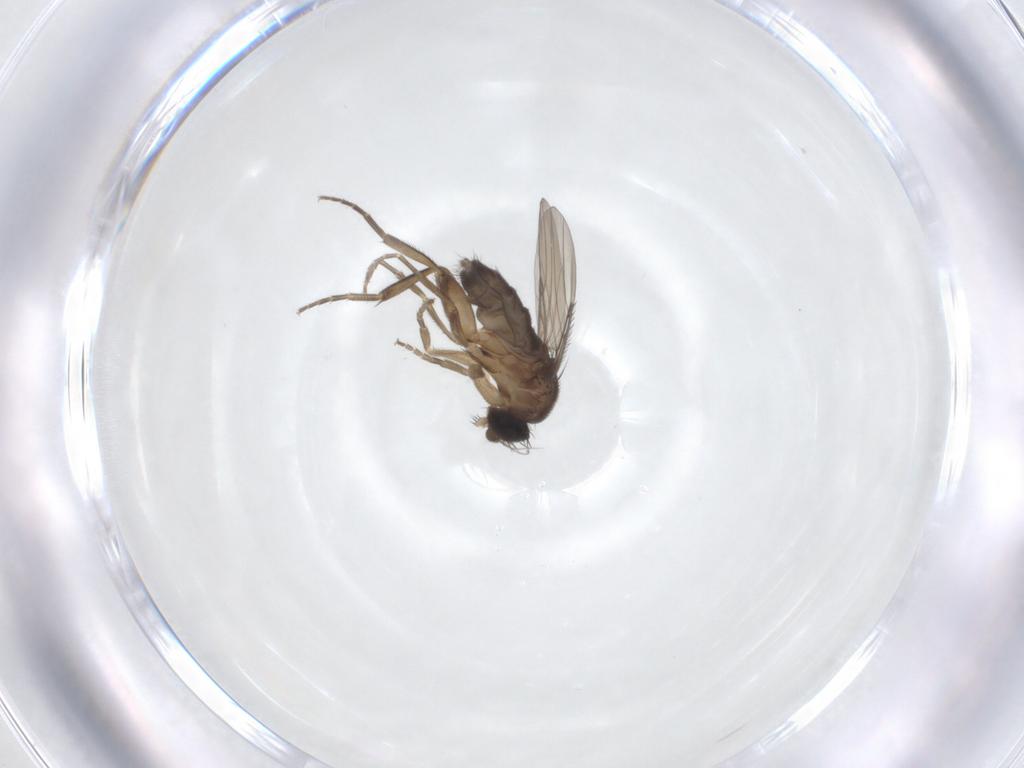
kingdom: Animalia
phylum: Arthropoda
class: Insecta
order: Diptera
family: Phoridae
